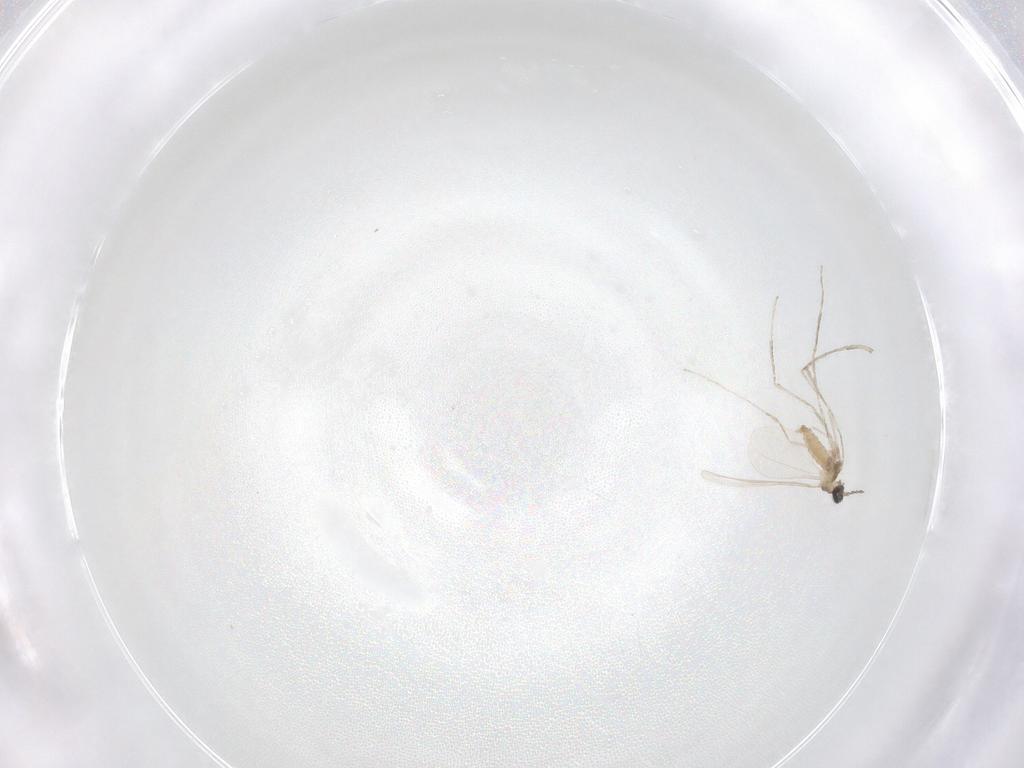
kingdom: Animalia
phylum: Arthropoda
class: Insecta
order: Diptera
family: Cecidomyiidae
